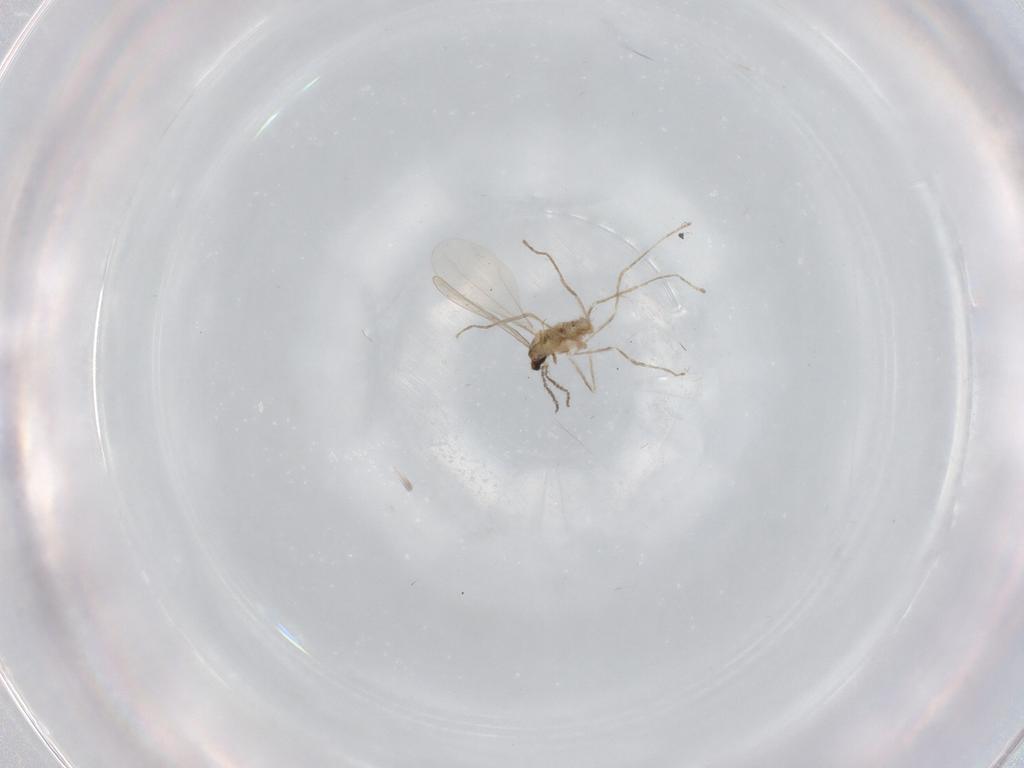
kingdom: Animalia
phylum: Arthropoda
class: Insecta
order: Diptera
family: Cecidomyiidae
